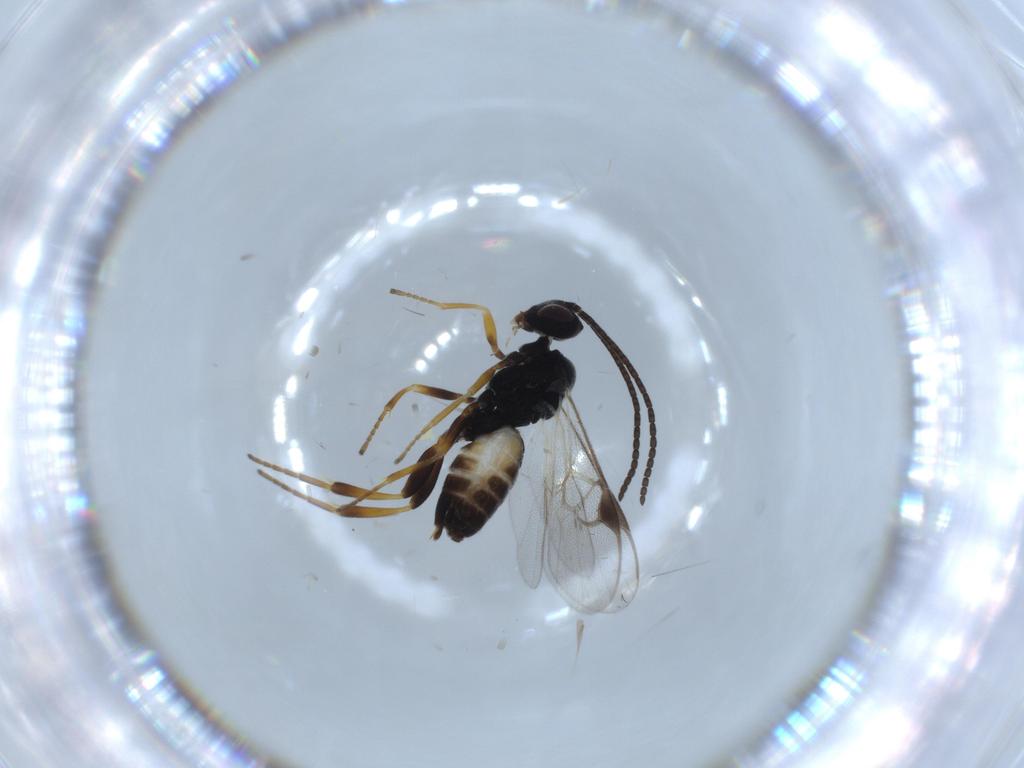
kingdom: Animalia
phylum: Arthropoda
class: Insecta
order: Hymenoptera
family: Braconidae
